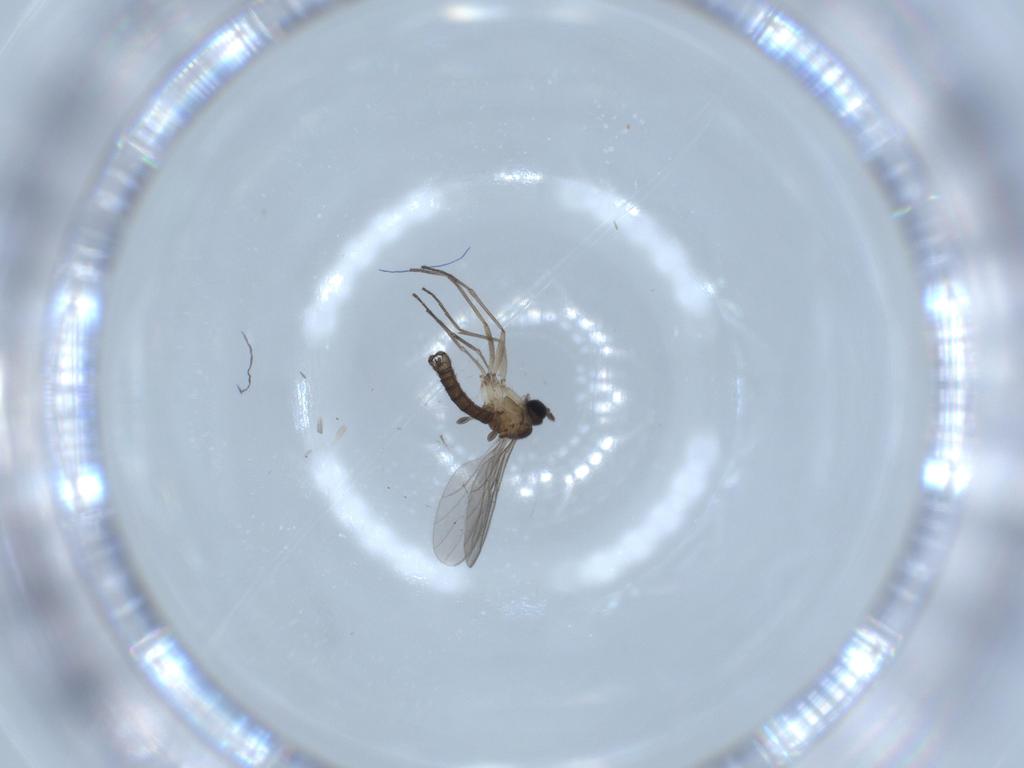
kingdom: Animalia
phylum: Arthropoda
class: Insecta
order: Diptera
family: Sciaridae
